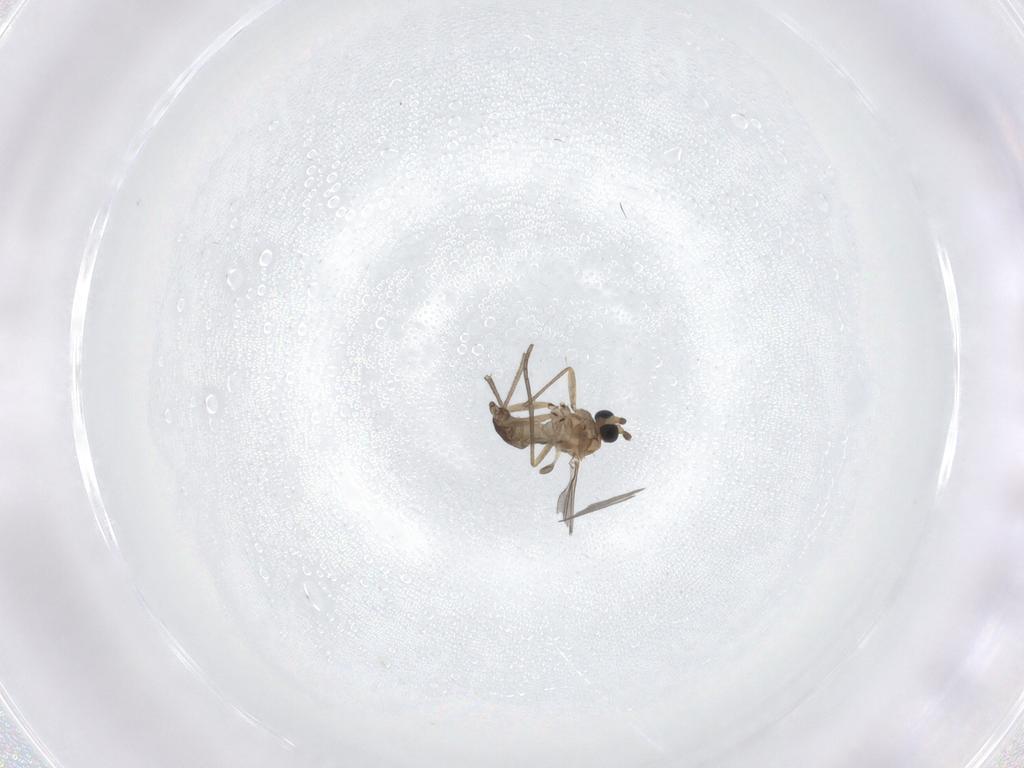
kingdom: Animalia
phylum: Arthropoda
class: Insecta
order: Diptera
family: Sciaridae
